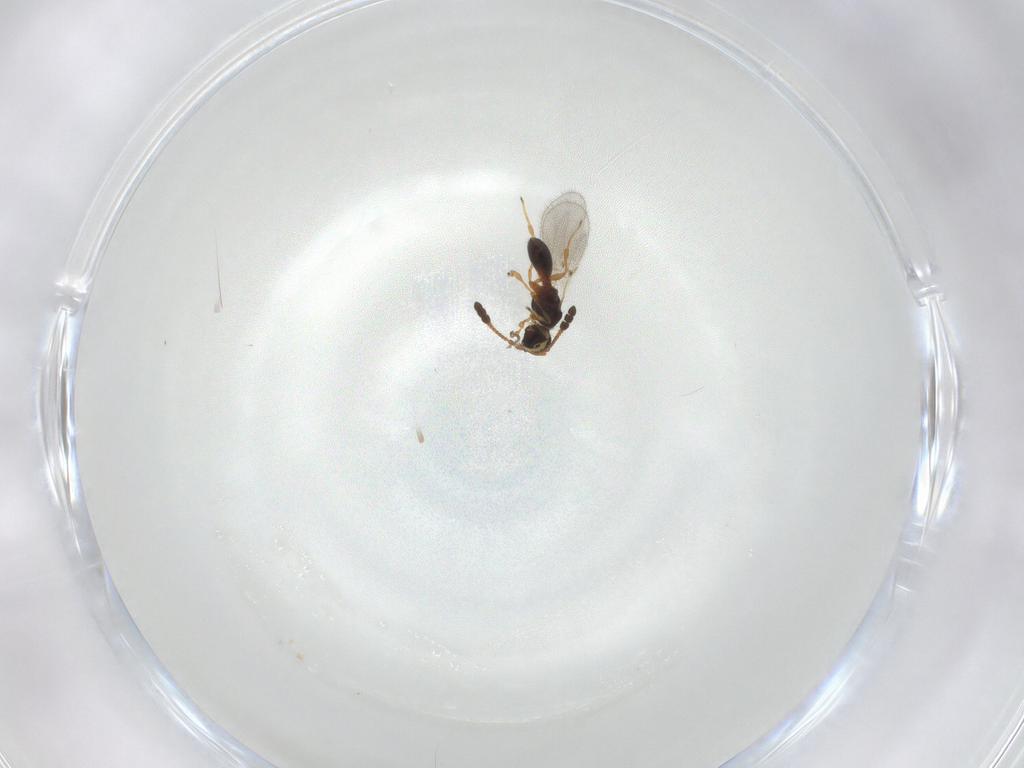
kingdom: Animalia
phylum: Arthropoda
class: Insecta
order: Hymenoptera
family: Diapriidae
